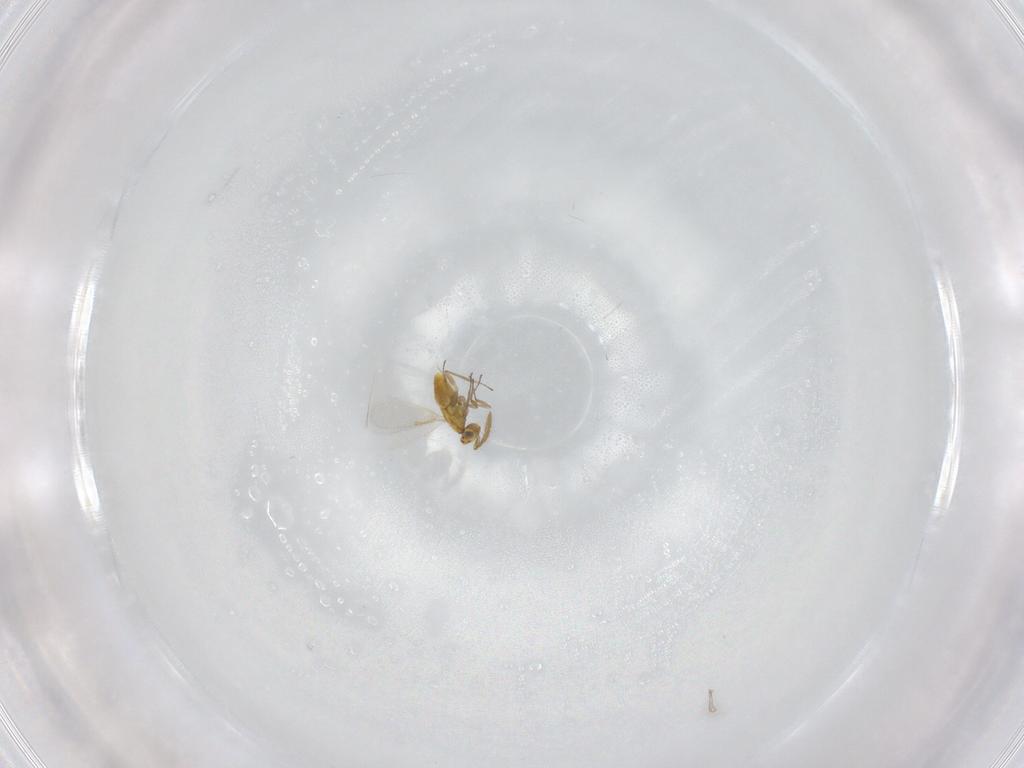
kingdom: Animalia
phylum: Arthropoda
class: Insecta
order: Hymenoptera
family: Aphelinidae
